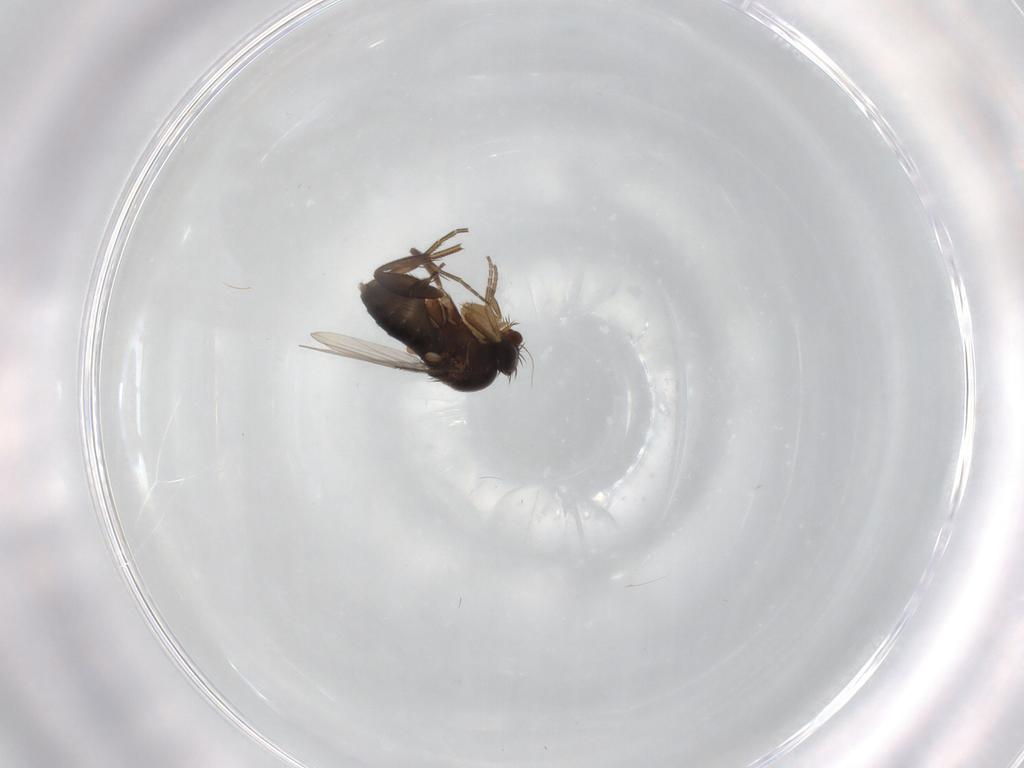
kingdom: Animalia
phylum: Arthropoda
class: Insecta
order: Diptera
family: Phoridae
